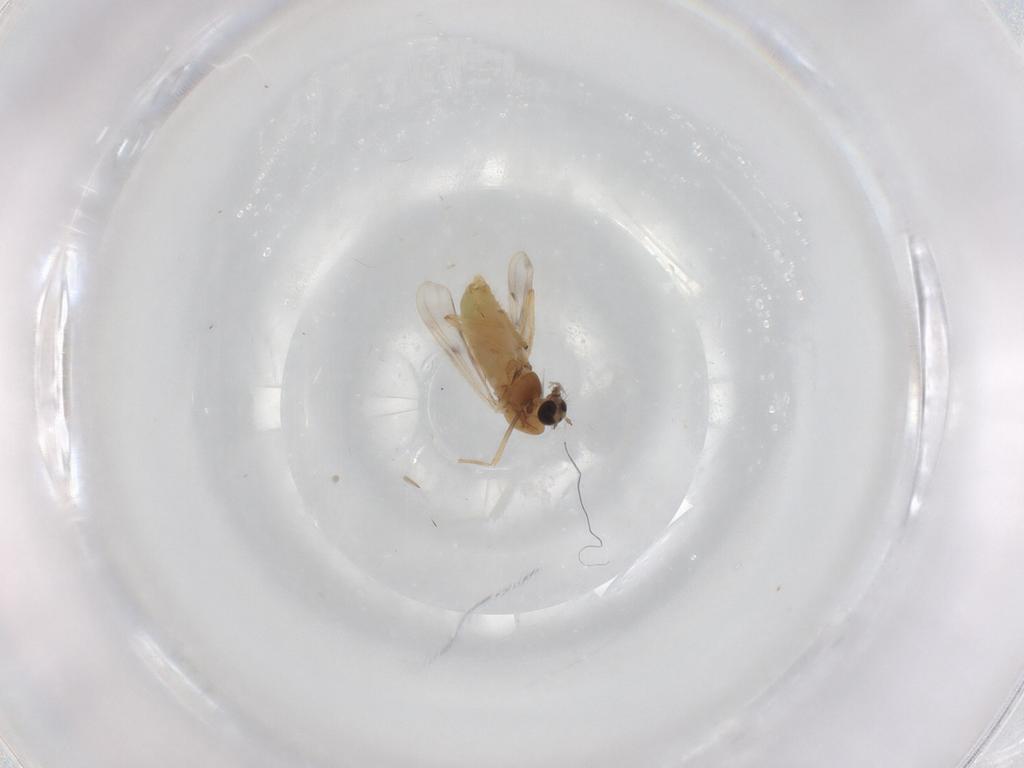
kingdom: Animalia
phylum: Arthropoda
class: Insecta
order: Diptera
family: Chironomidae
